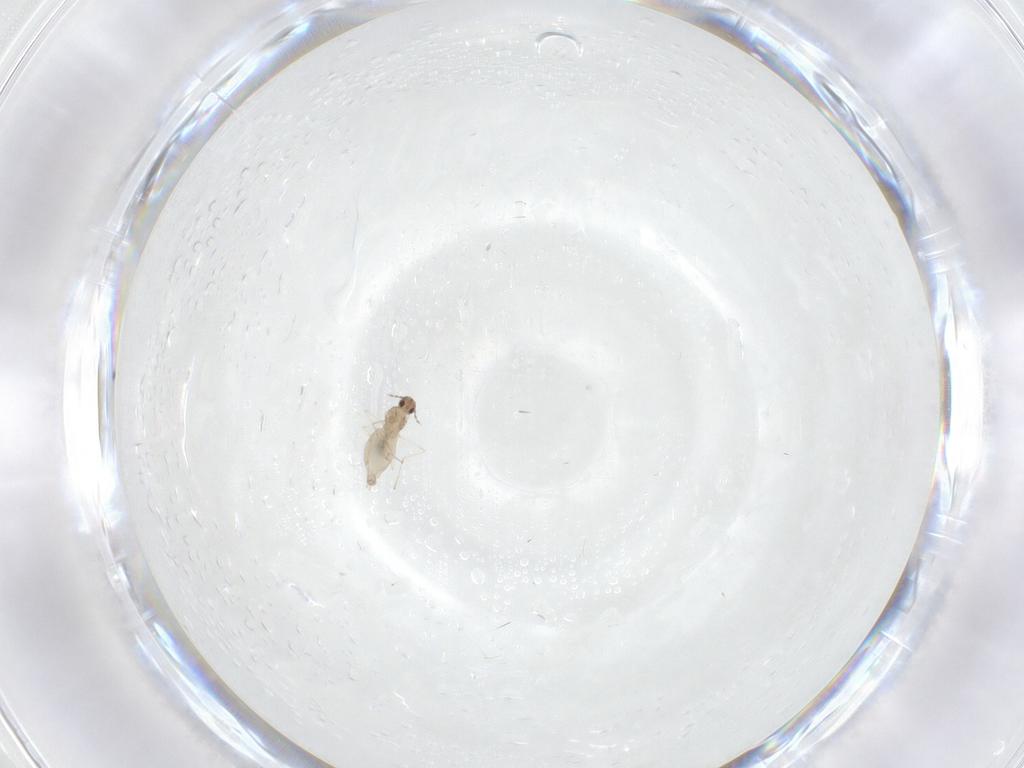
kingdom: Animalia
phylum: Arthropoda
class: Insecta
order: Diptera
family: Cecidomyiidae
